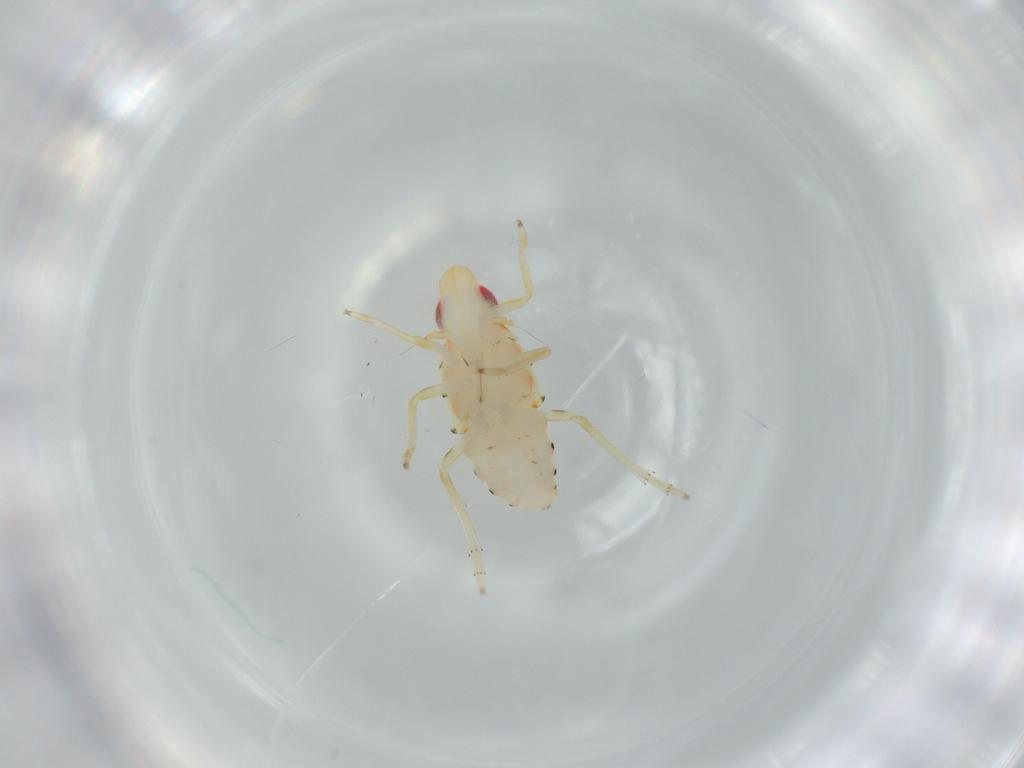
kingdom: Animalia
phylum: Arthropoda
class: Insecta
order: Hemiptera
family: Tropiduchidae
